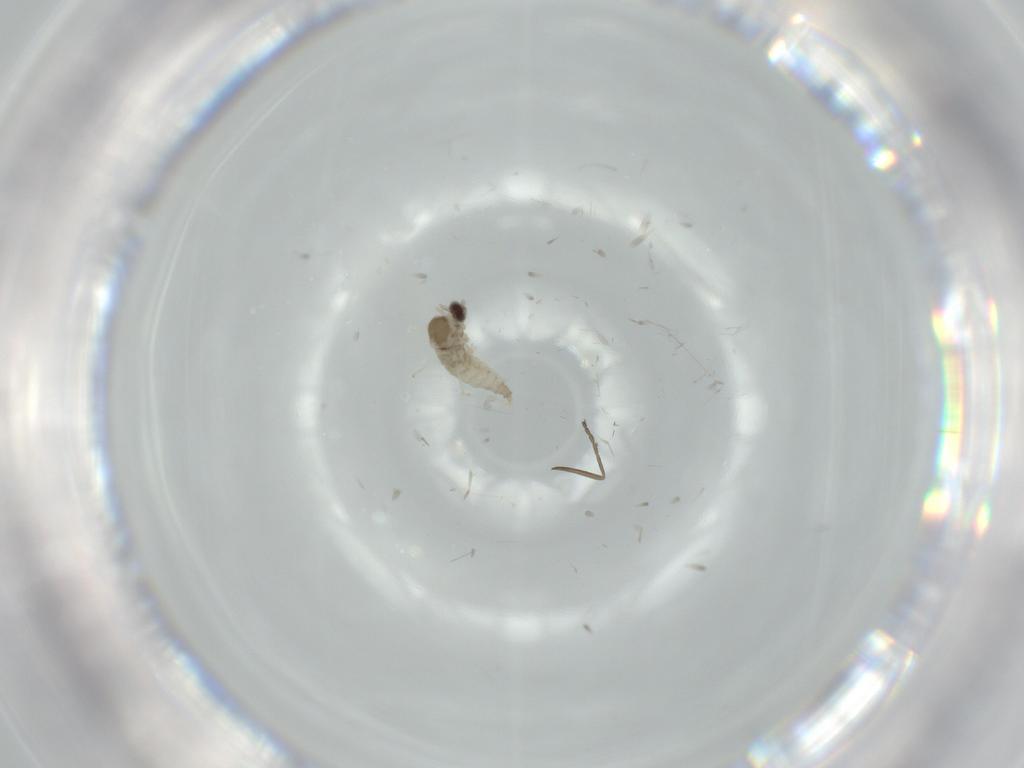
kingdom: Animalia
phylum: Arthropoda
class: Insecta
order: Diptera
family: Cecidomyiidae
